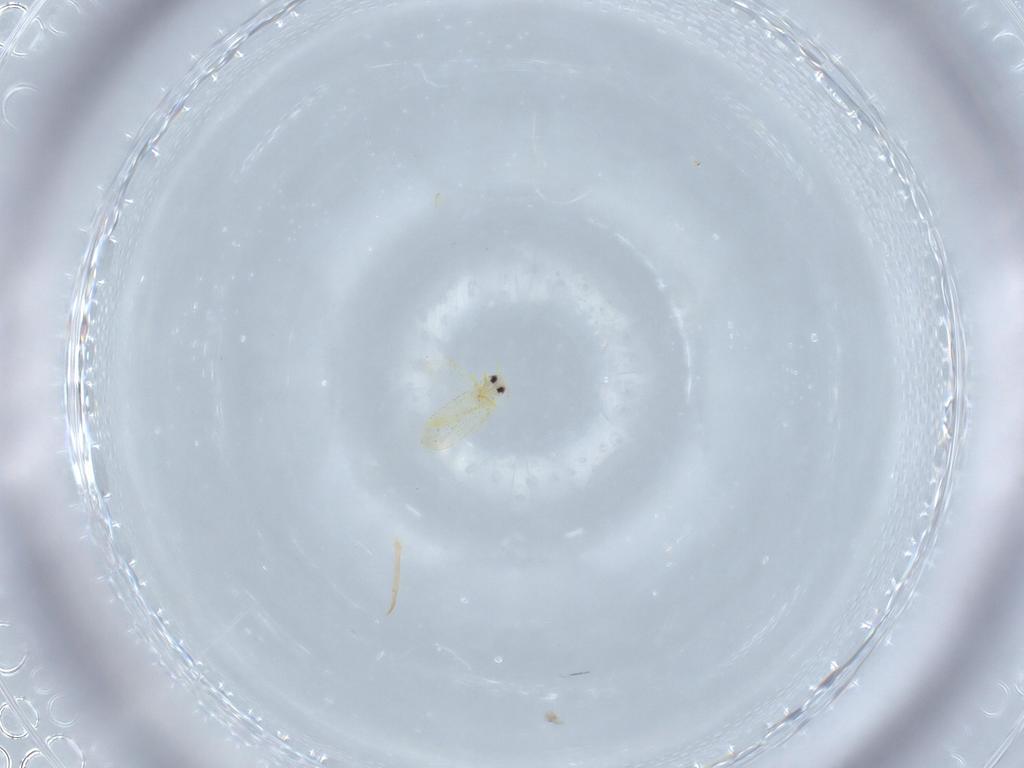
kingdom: Animalia
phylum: Arthropoda
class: Insecta
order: Hemiptera
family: Aleyrodidae
